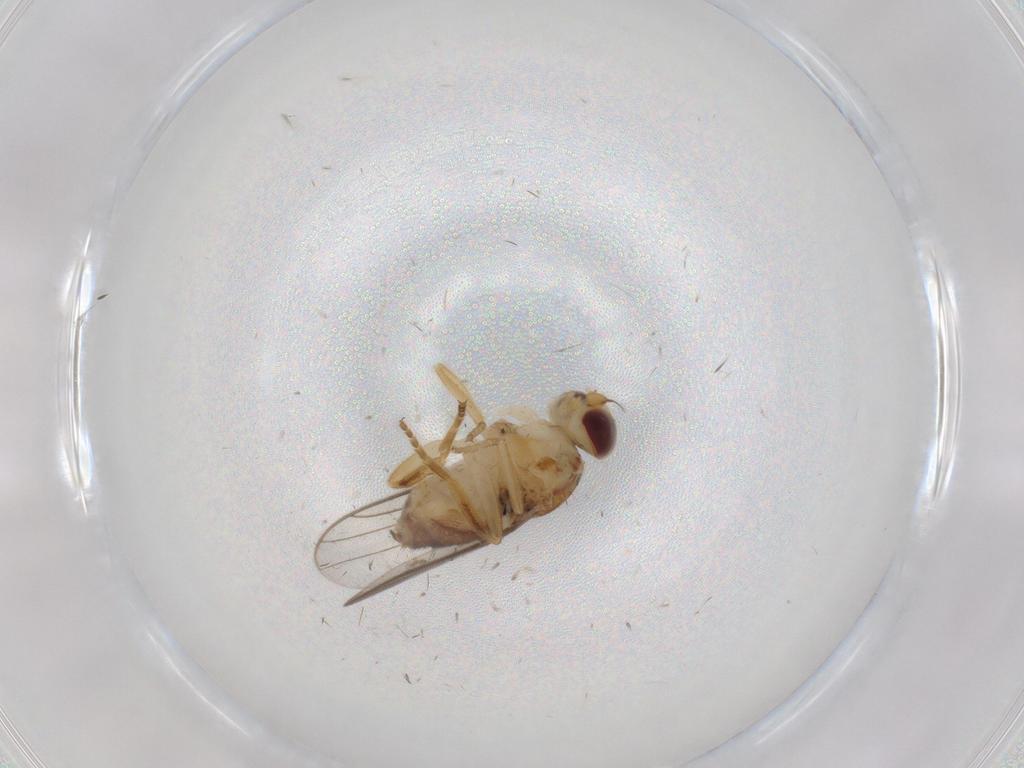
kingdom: Animalia
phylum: Arthropoda
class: Insecta
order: Diptera
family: Chloropidae
